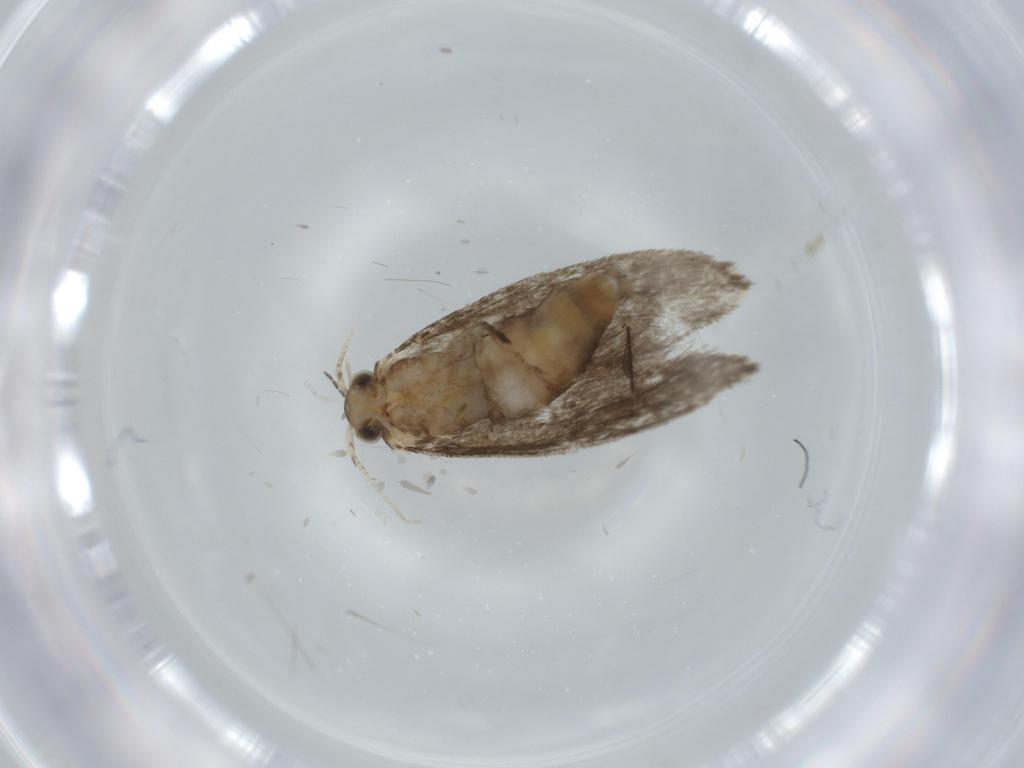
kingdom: Animalia
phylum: Arthropoda
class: Insecta
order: Lepidoptera
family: Tineidae
